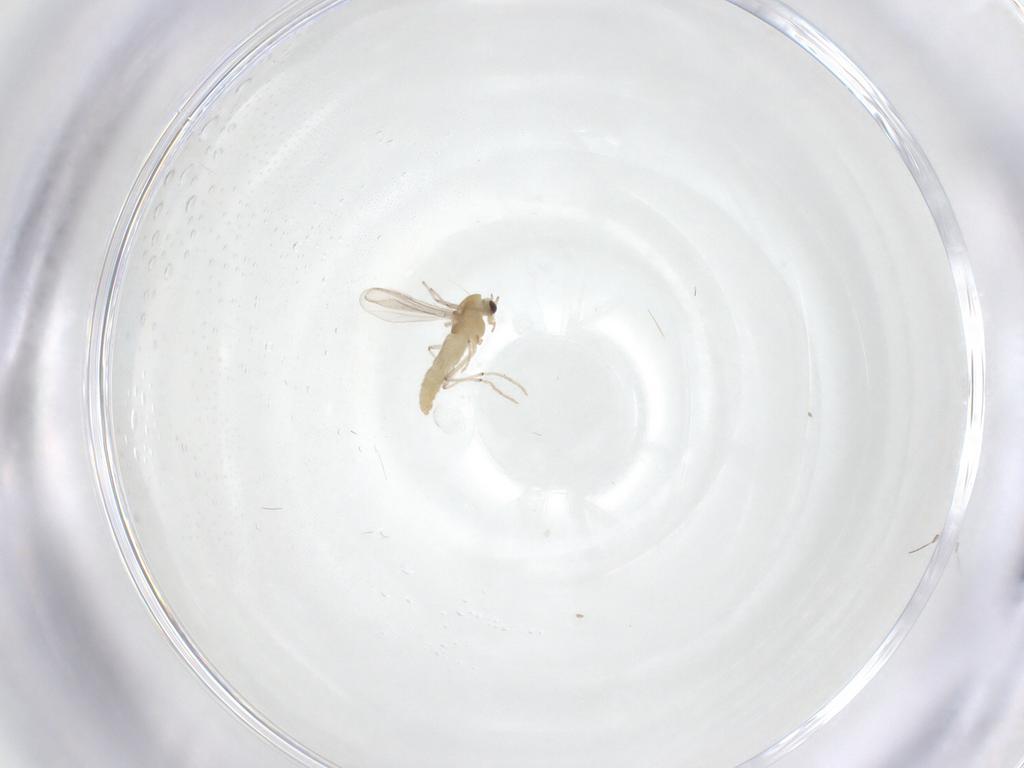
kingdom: Animalia
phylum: Arthropoda
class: Insecta
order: Diptera
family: Chironomidae
